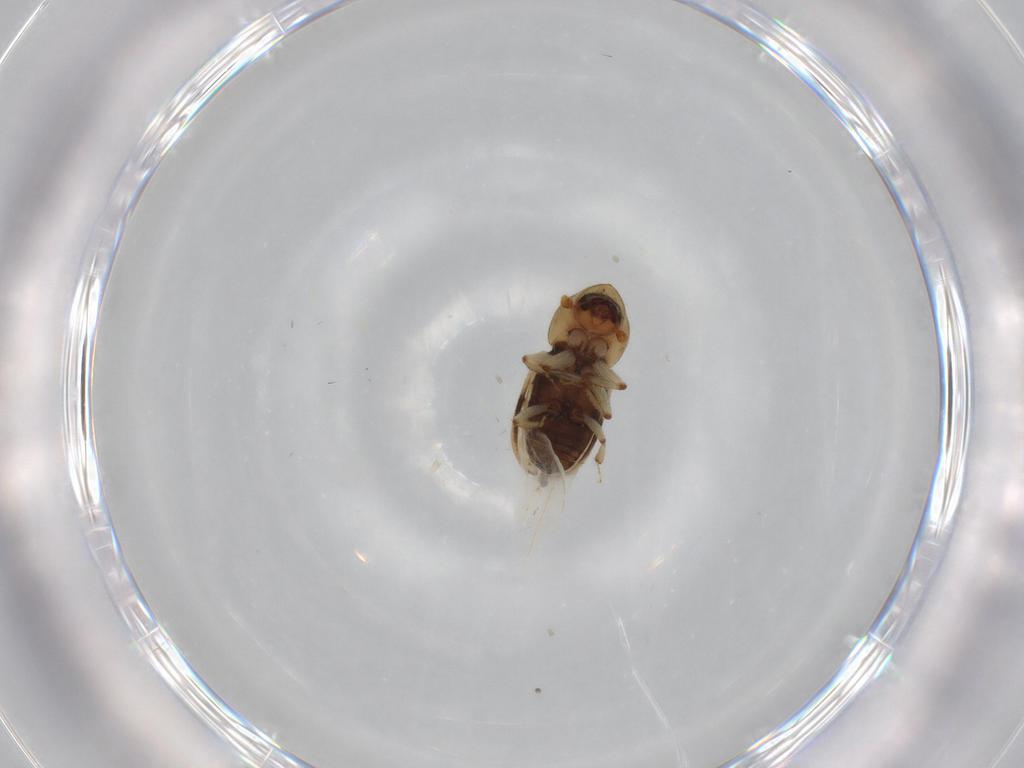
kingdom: Animalia
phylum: Arthropoda
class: Insecta
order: Coleoptera
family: Curculionidae
